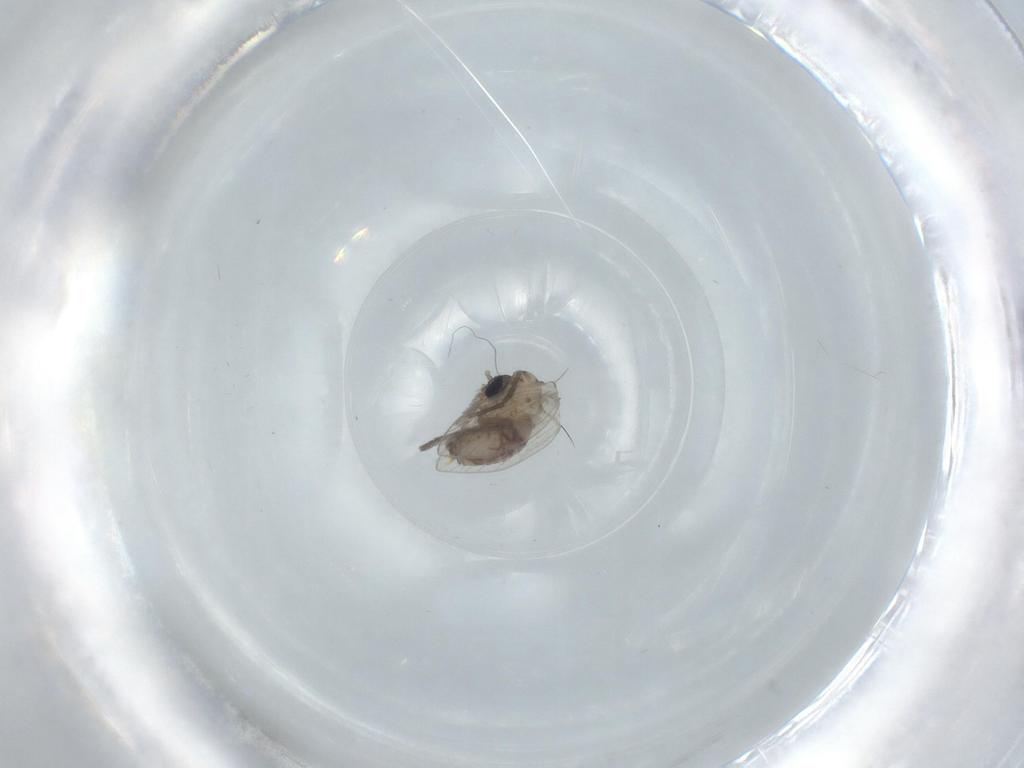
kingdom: Animalia
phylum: Arthropoda
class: Insecta
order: Diptera
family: Psychodidae
